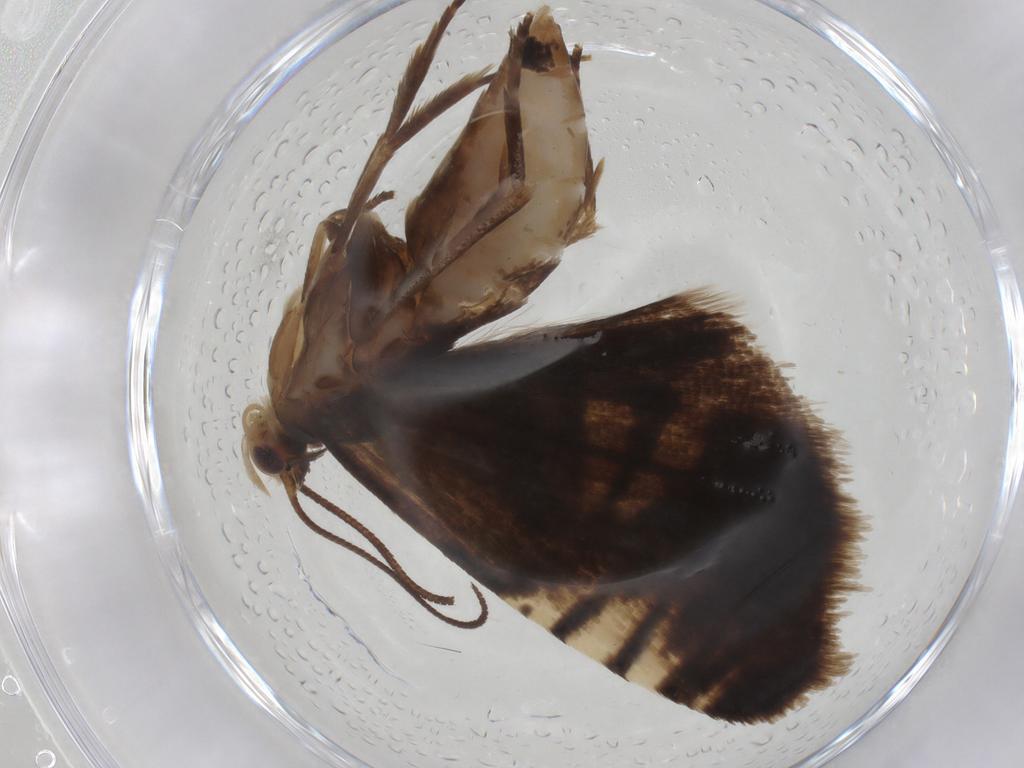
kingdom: Animalia
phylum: Arthropoda
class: Insecta
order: Lepidoptera
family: Tortricidae
